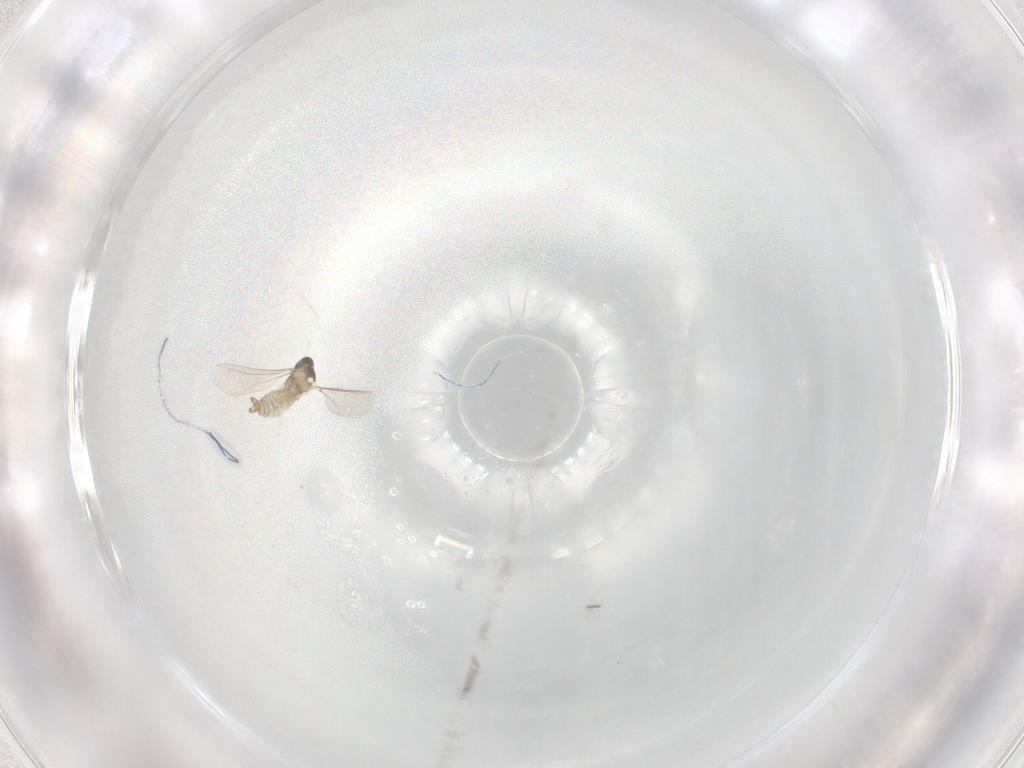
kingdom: Animalia
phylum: Arthropoda
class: Insecta
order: Diptera
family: Cecidomyiidae
